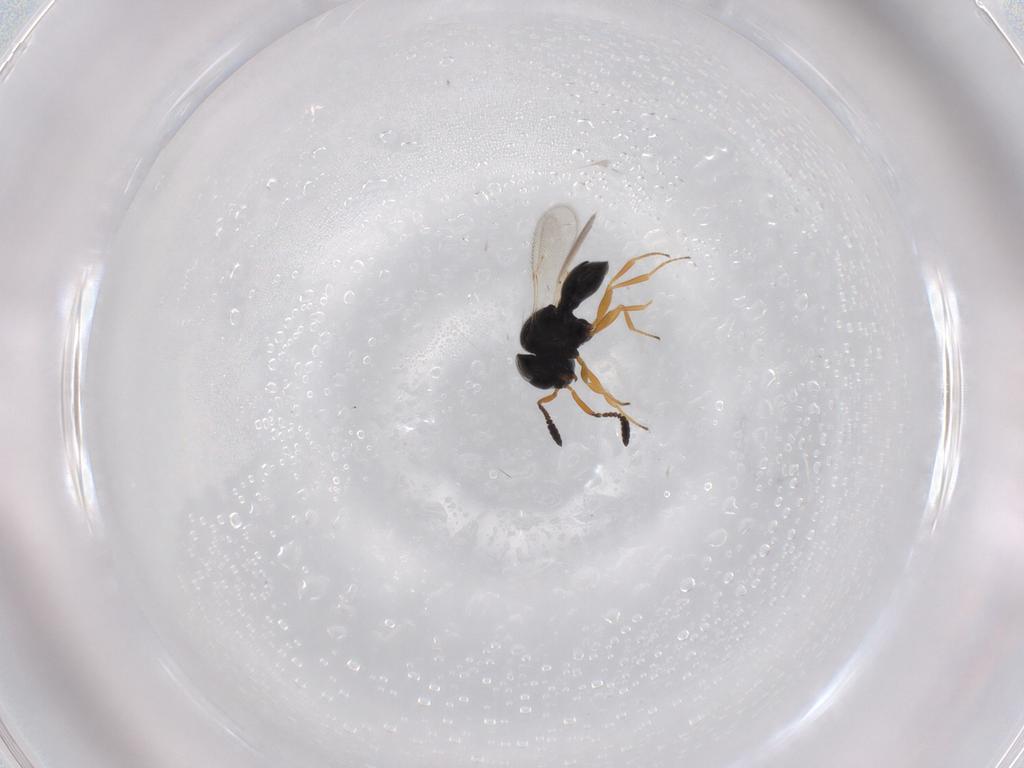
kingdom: Animalia
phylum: Arthropoda
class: Insecta
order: Hymenoptera
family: Scelionidae
